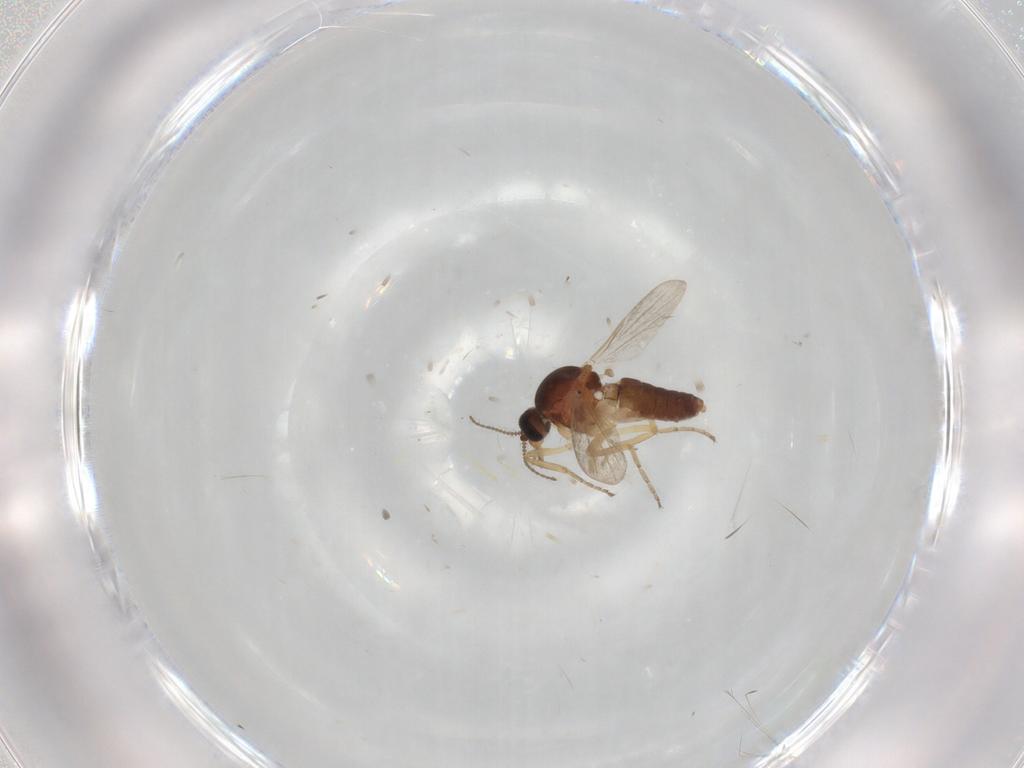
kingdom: Animalia
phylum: Arthropoda
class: Insecta
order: Diptera
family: Ceratopogonidae
